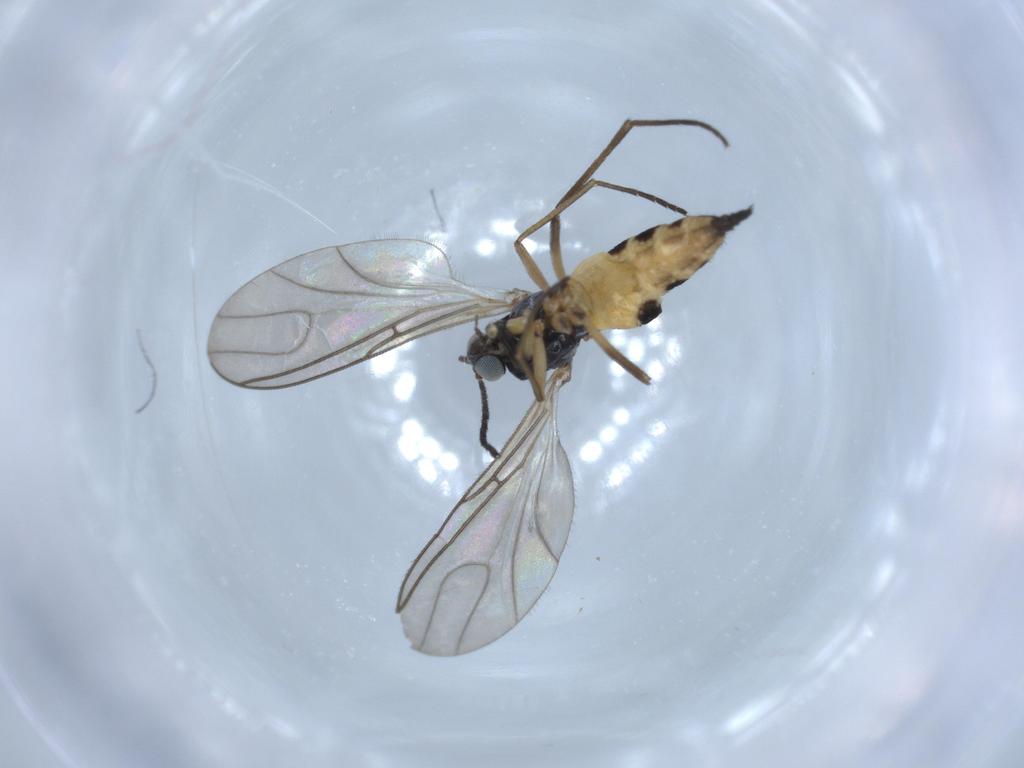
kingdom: Animalia
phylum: Arthropoda
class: Insecta
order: Diptera
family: Sciaridae
